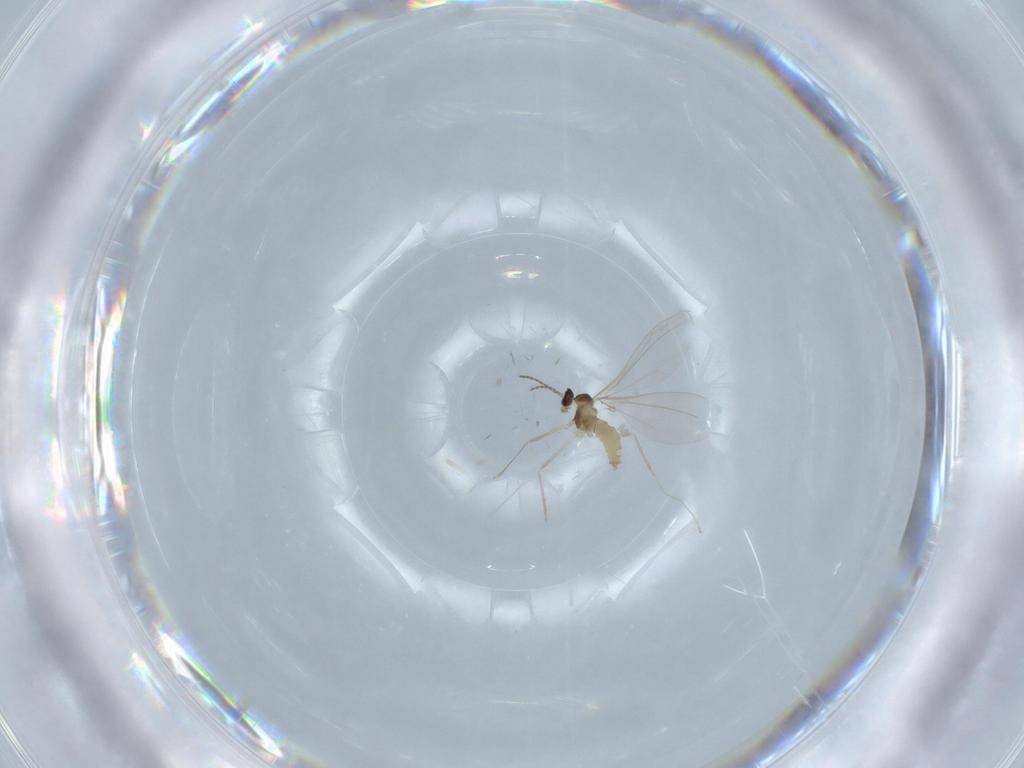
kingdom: Animalia
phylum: Arthropoda
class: Insecta
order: Diptera
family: Cecidomyiidae
